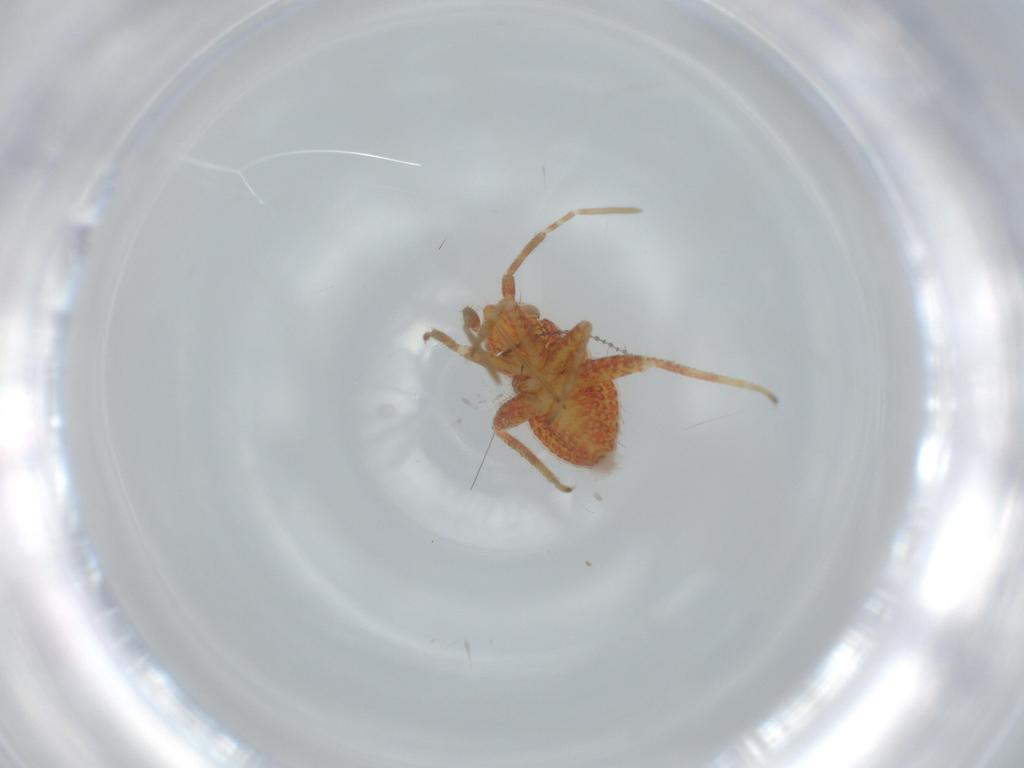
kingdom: Animalia
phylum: Arthropoda
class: Insecta
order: Hemiptera
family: Miridae
